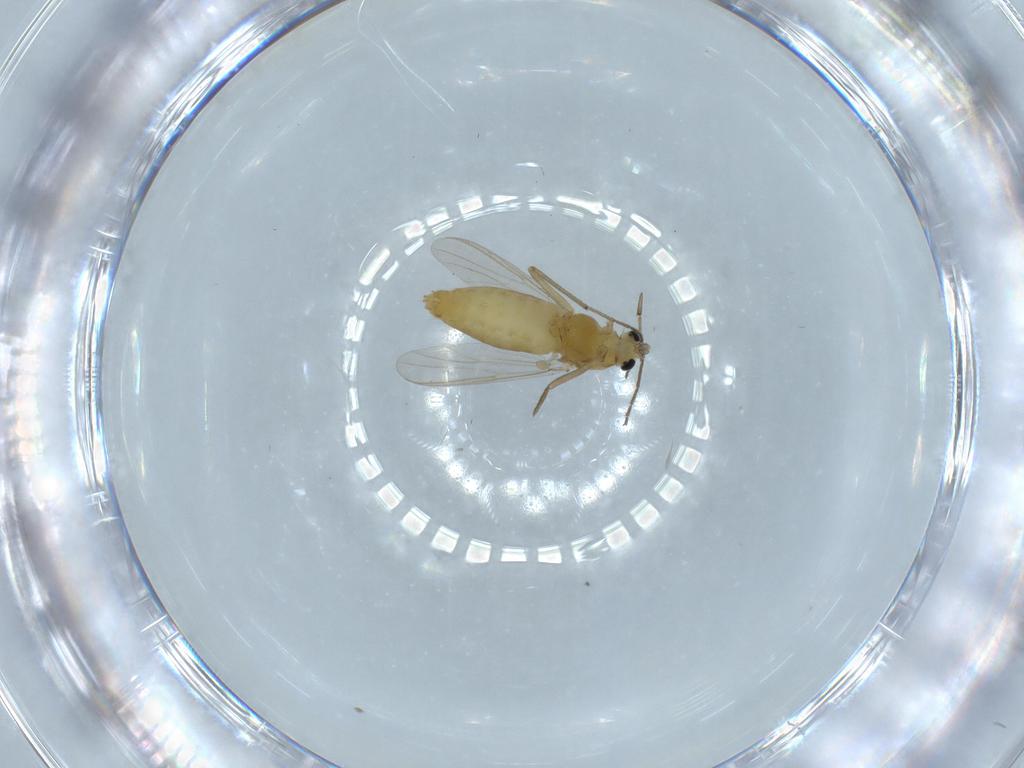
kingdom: Animalia
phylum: Arthropoda
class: Insecta
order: Diptera
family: Chironomidae
